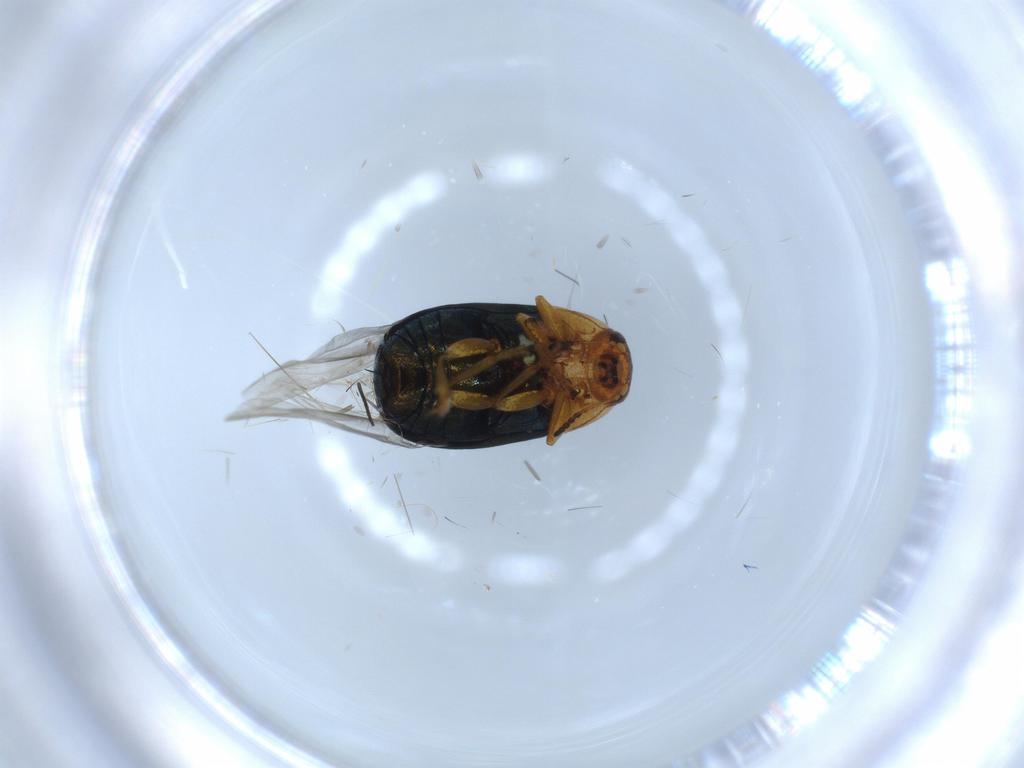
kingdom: Animalia
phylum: Arthropoda
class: Insecta
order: Coleoptera
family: Chrysomelidae
